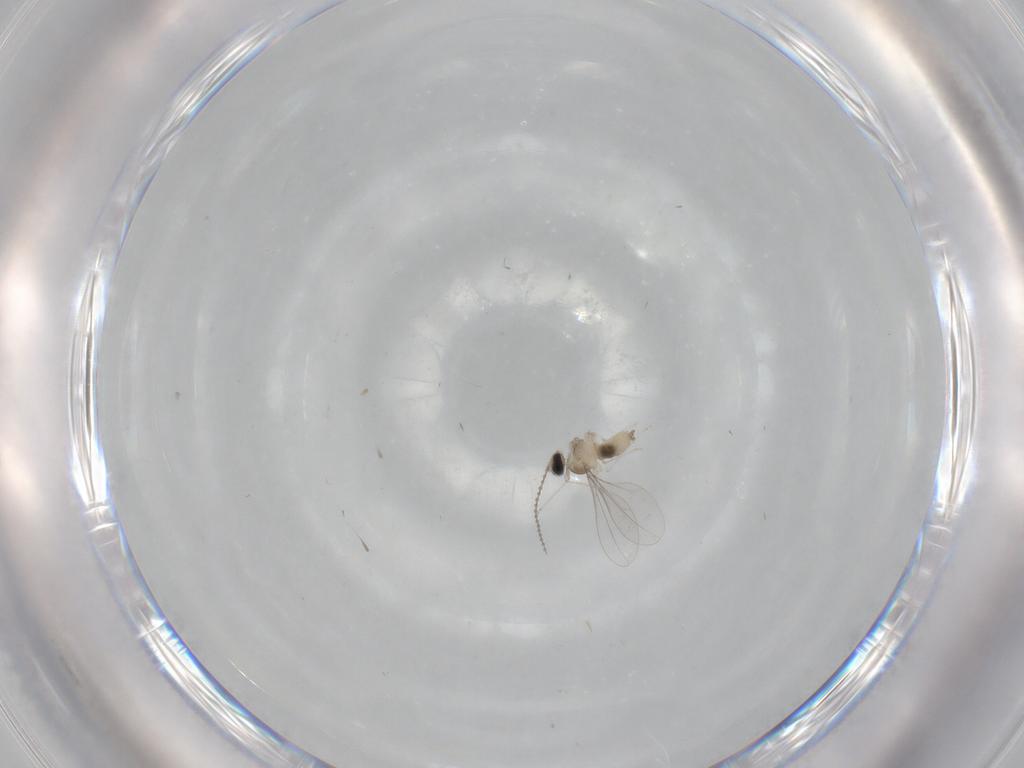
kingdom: Animalia
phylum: Arthropoda
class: Insecta
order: Diptera
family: Cecidomyiidae
